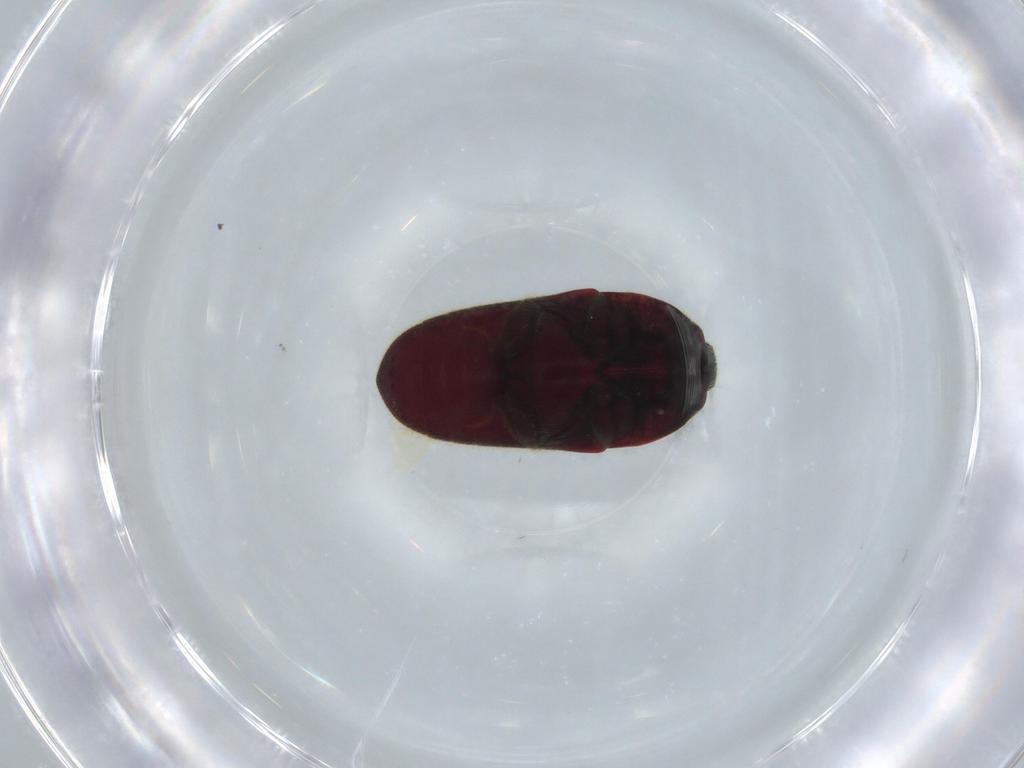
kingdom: Animalia
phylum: Arthropoda
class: Insecta
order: Coleoptera
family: Throscidae
